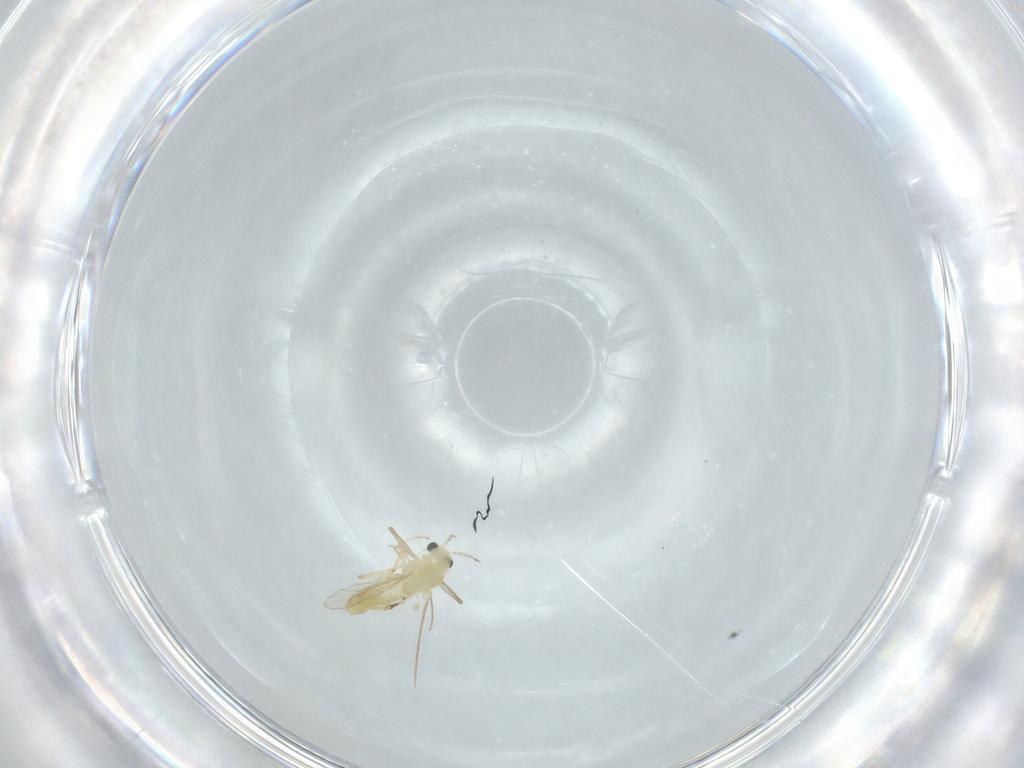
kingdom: Animalia
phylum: Arthropoda
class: Insecta
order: Diptera
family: Chironomidae
